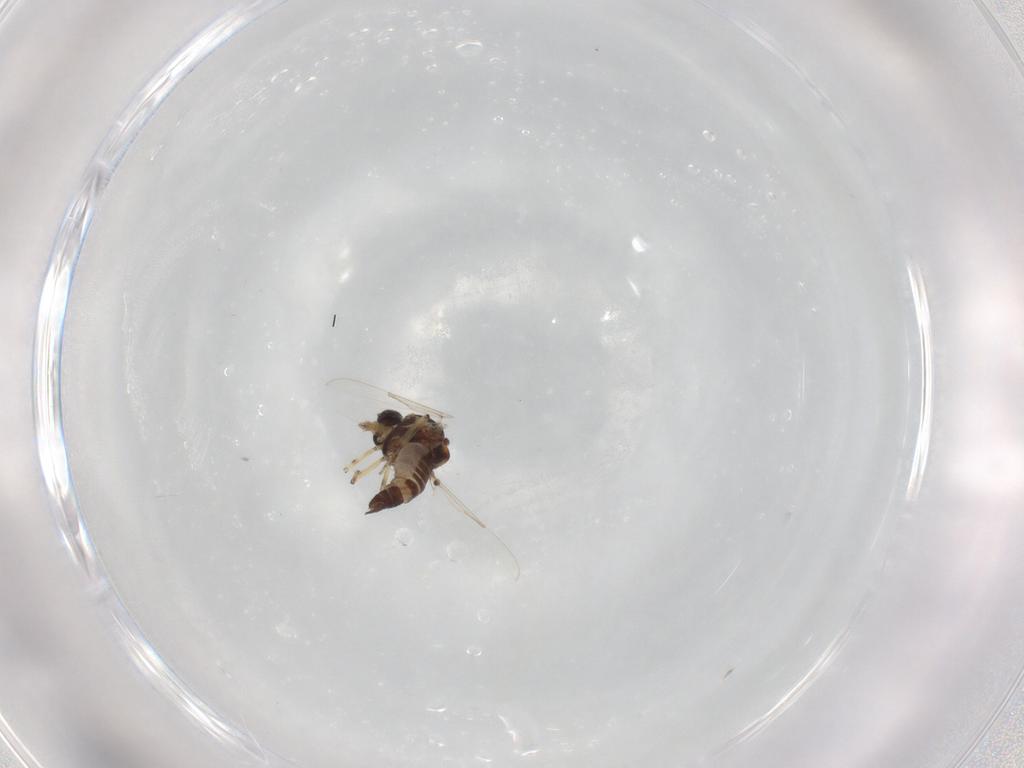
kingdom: Animalia
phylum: Arthropoda
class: Insecta
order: Diptera
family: Ceratopogonidae
